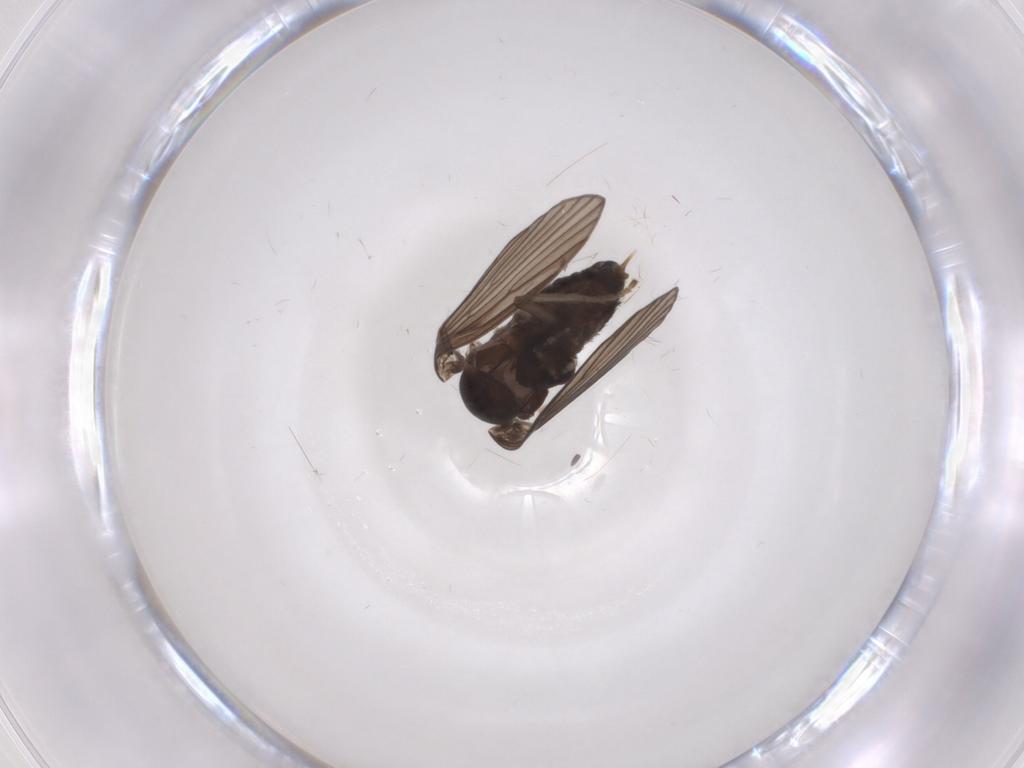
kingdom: Animalia
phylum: Arthropoda
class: Insecta
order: Diptera
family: Psychodidae
